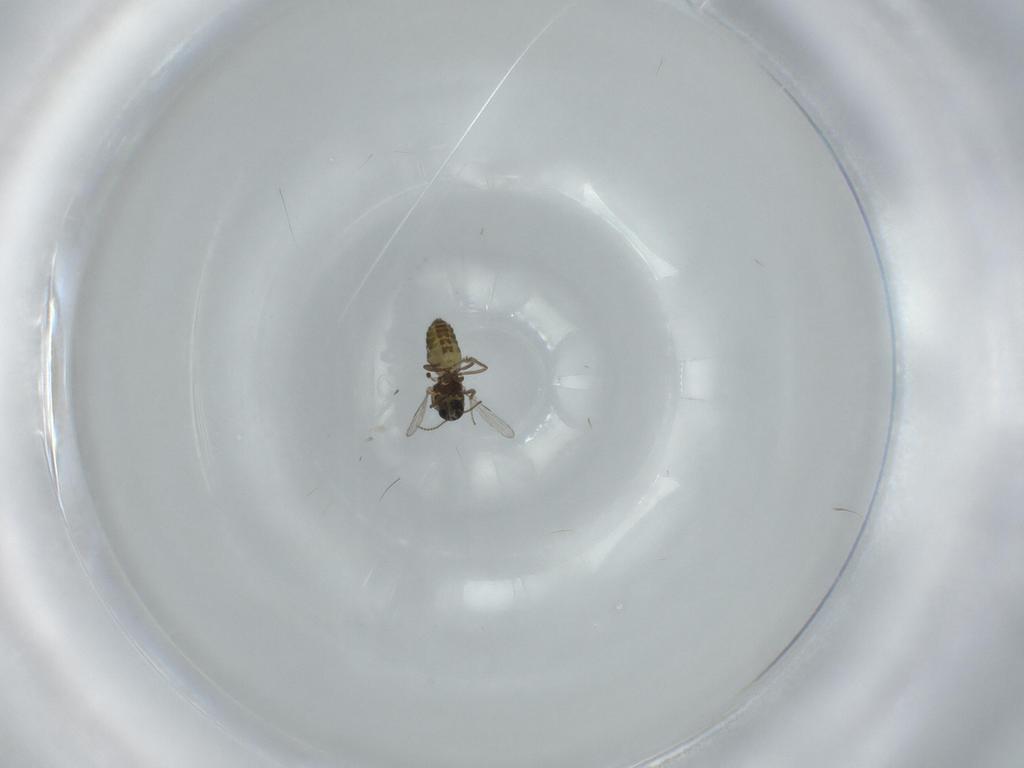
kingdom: Animalia
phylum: Arthropoda
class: Insecta
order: Diptera
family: Ceratopogonidae
